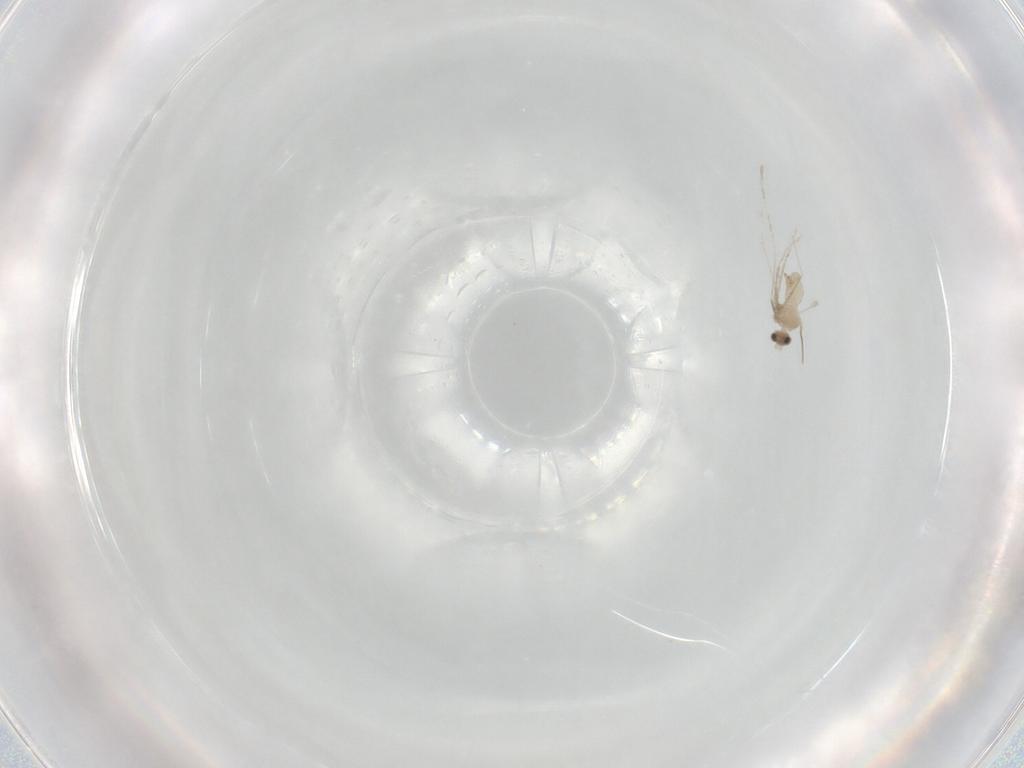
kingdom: Animalia
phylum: Arthropoda
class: Insecta
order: Diptera
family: Cecidomyiidae
